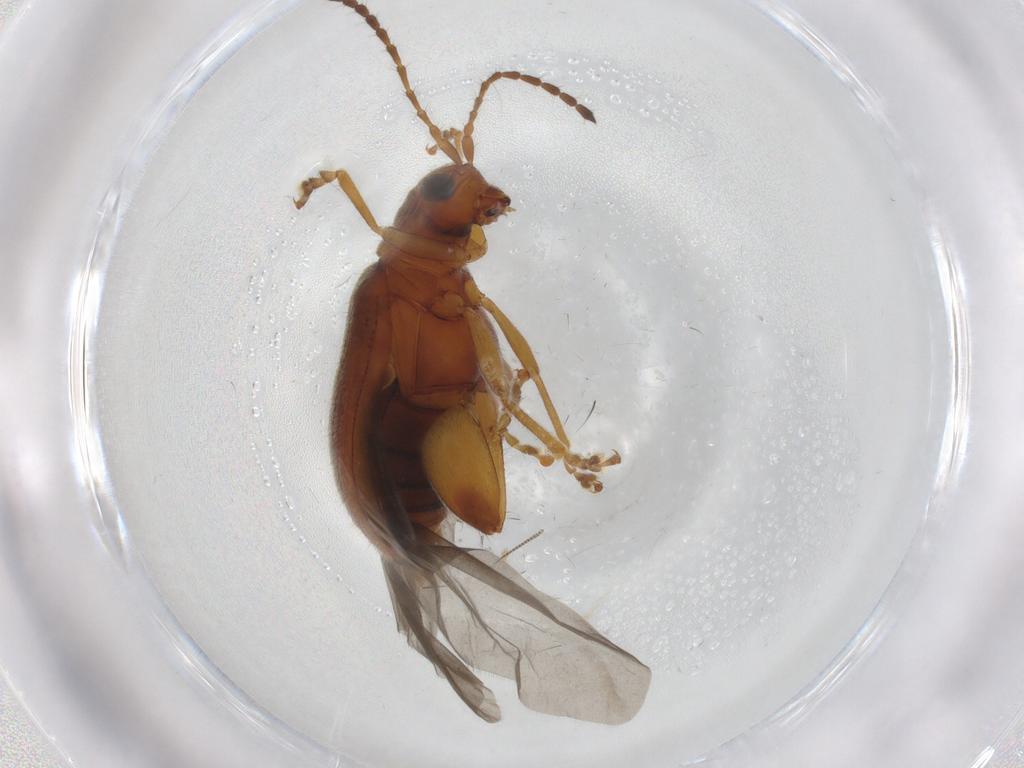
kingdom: Animalia
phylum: Arthropoda
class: Insecta
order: Coleoptera
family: Chrysomelidae
